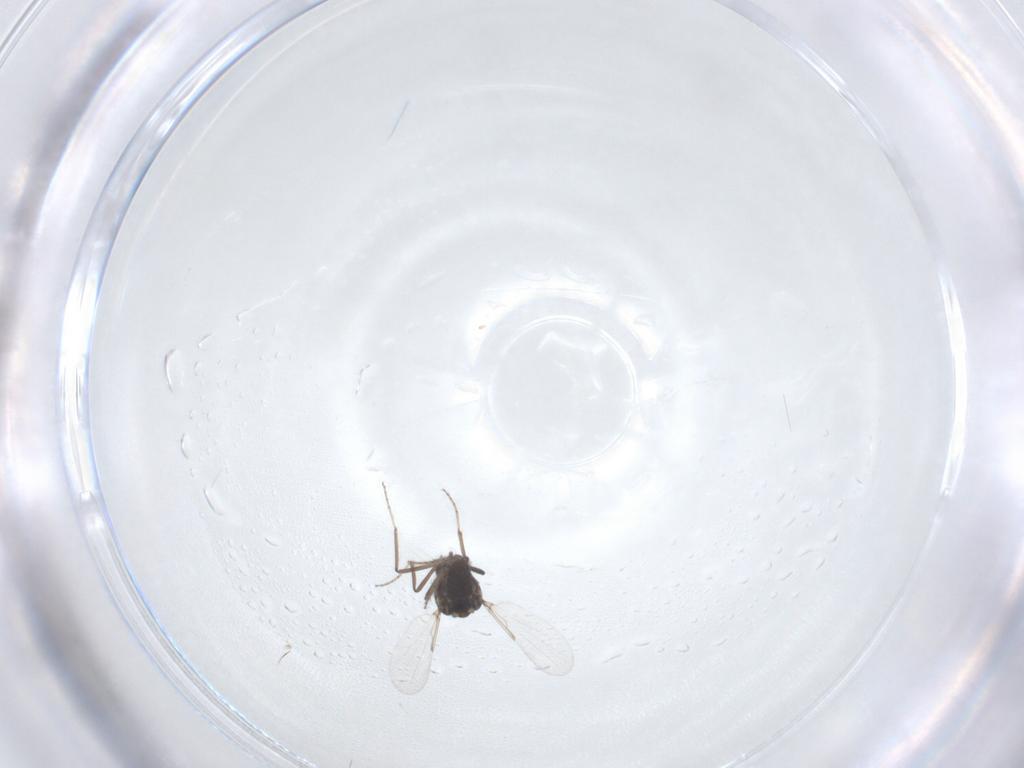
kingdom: Animalia
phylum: Arthropoda
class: Insecta
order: Diptera
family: Ceratopogonidae
